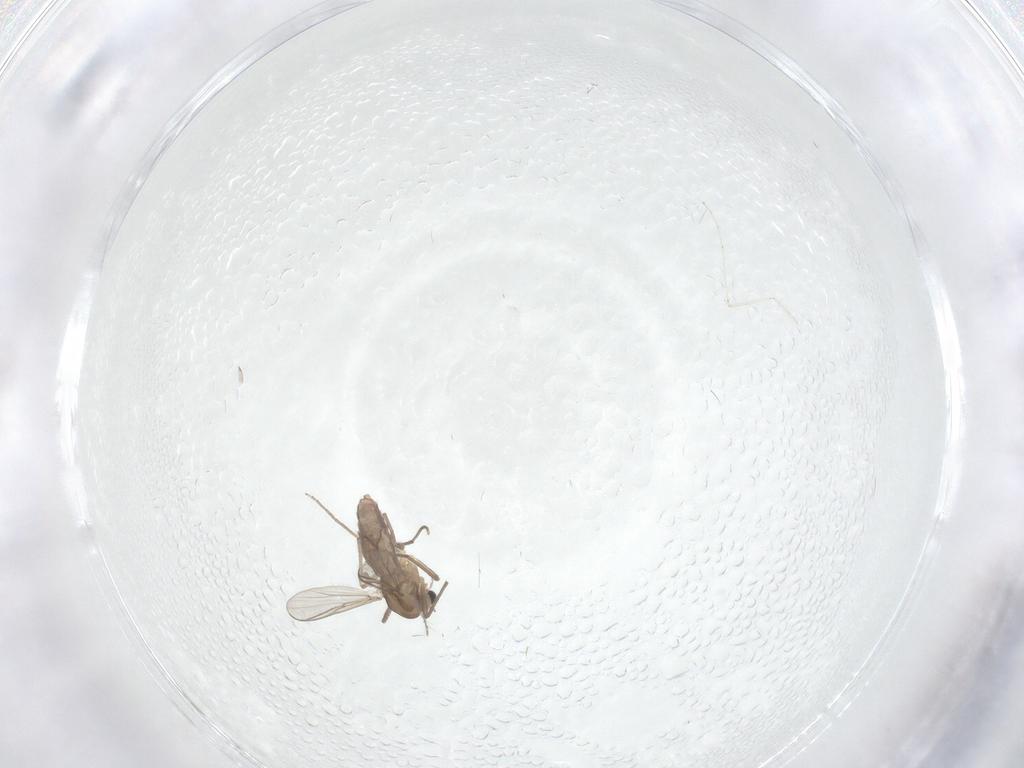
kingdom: Animalia
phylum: Arthropoda
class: Insecta
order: Diptera
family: Chironomidae
